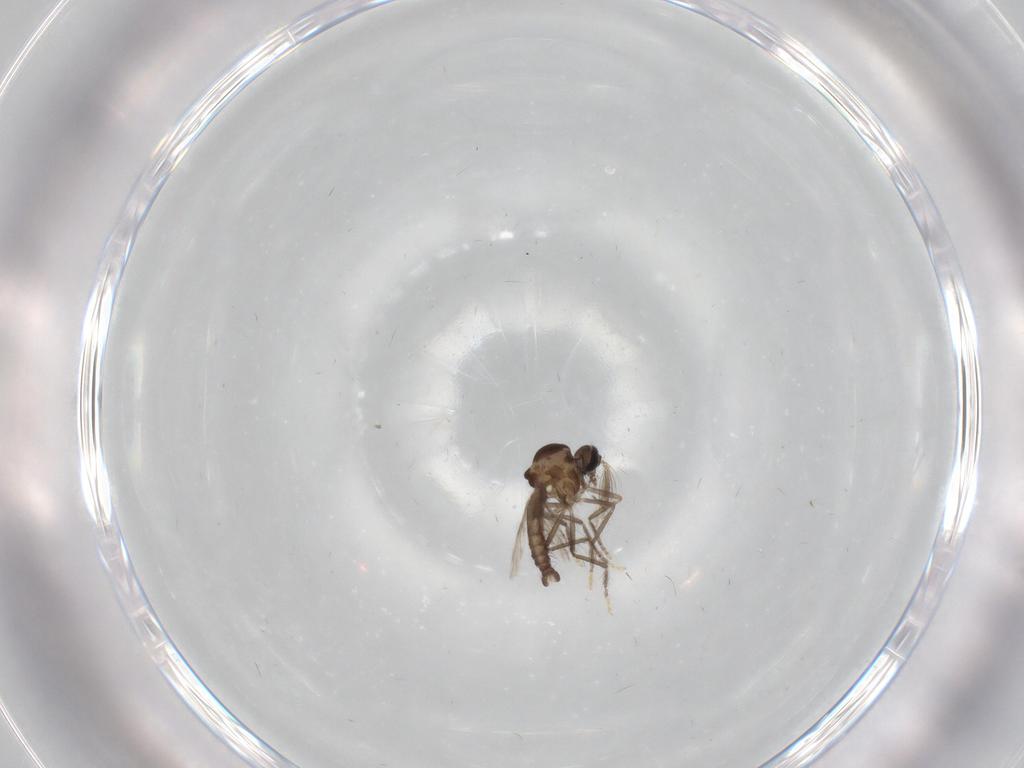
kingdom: Animalia
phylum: Arthropoda
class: Insecta
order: Diptera
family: Ceratopogonidae
